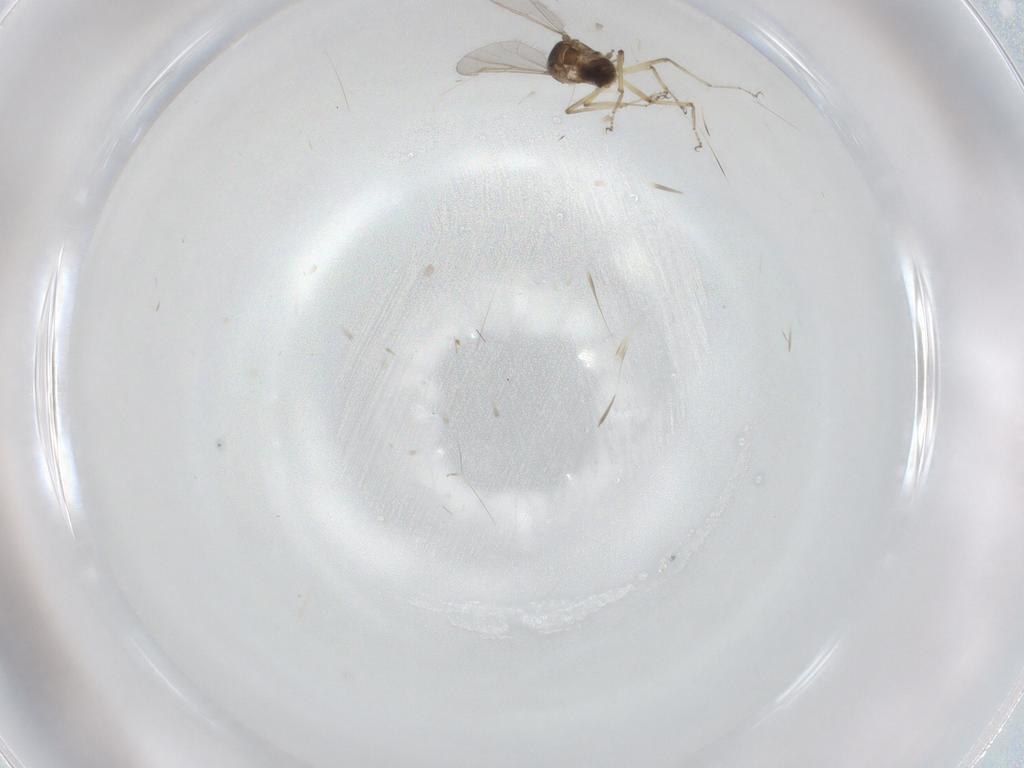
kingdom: Animalia
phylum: Arthropoda
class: Insecta
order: Diptera
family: Ceratopogonidae
